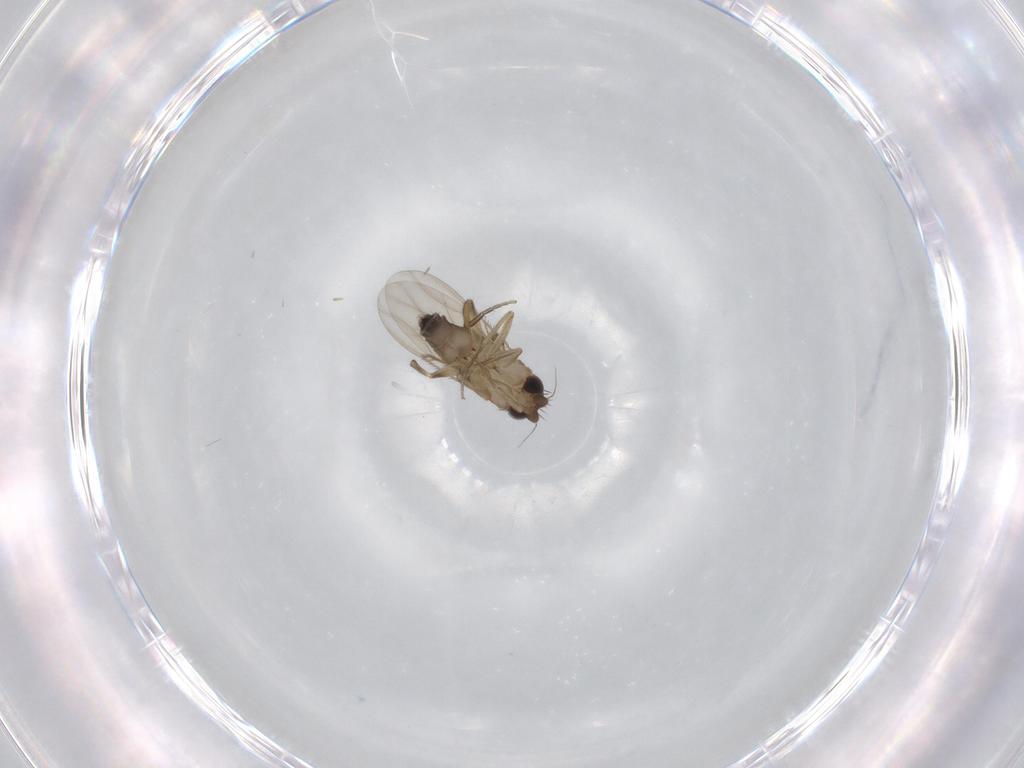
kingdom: Animalia
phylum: Arthropoda
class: Insecta
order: Diptera
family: Phoridae
